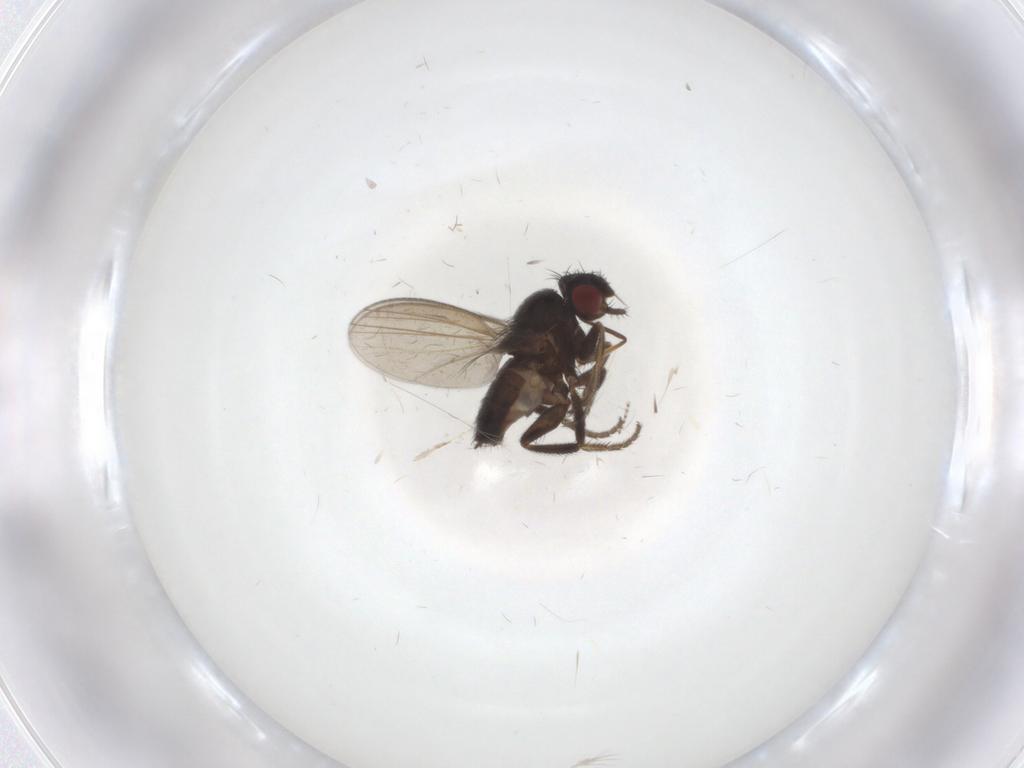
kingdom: Animalia
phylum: Arthropoda
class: Insecta
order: Diptera
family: Milichiidae
